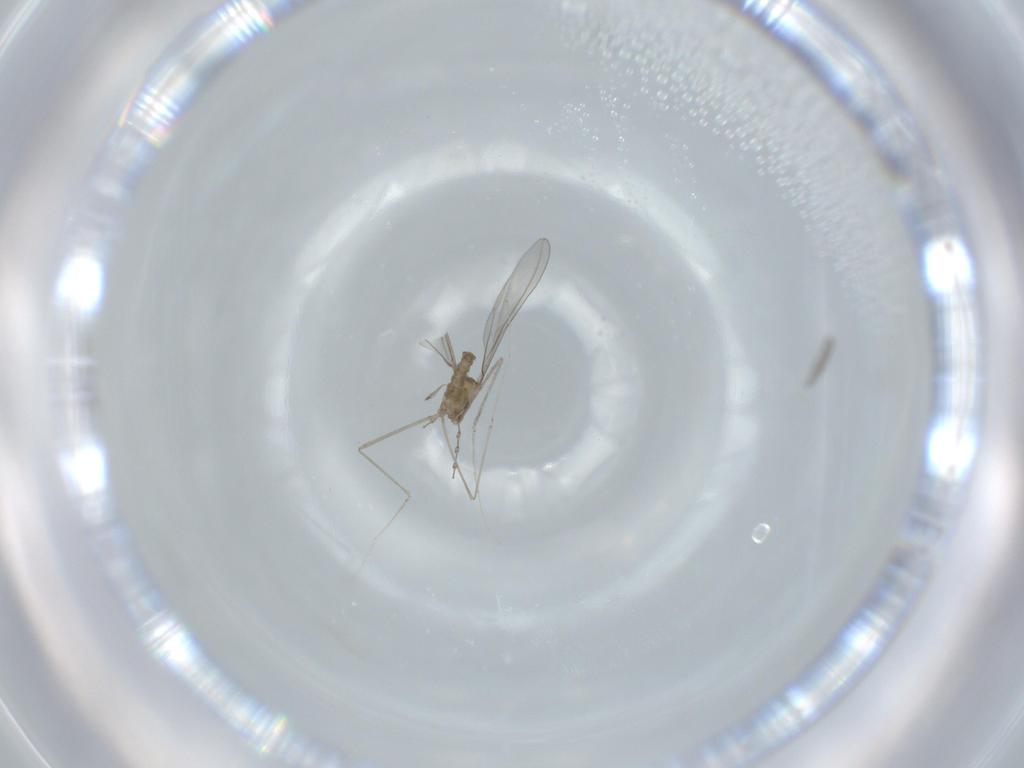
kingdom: Animalia
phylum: Arthropoda
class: Insecta
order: Diptera
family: Cecidomyiidae
